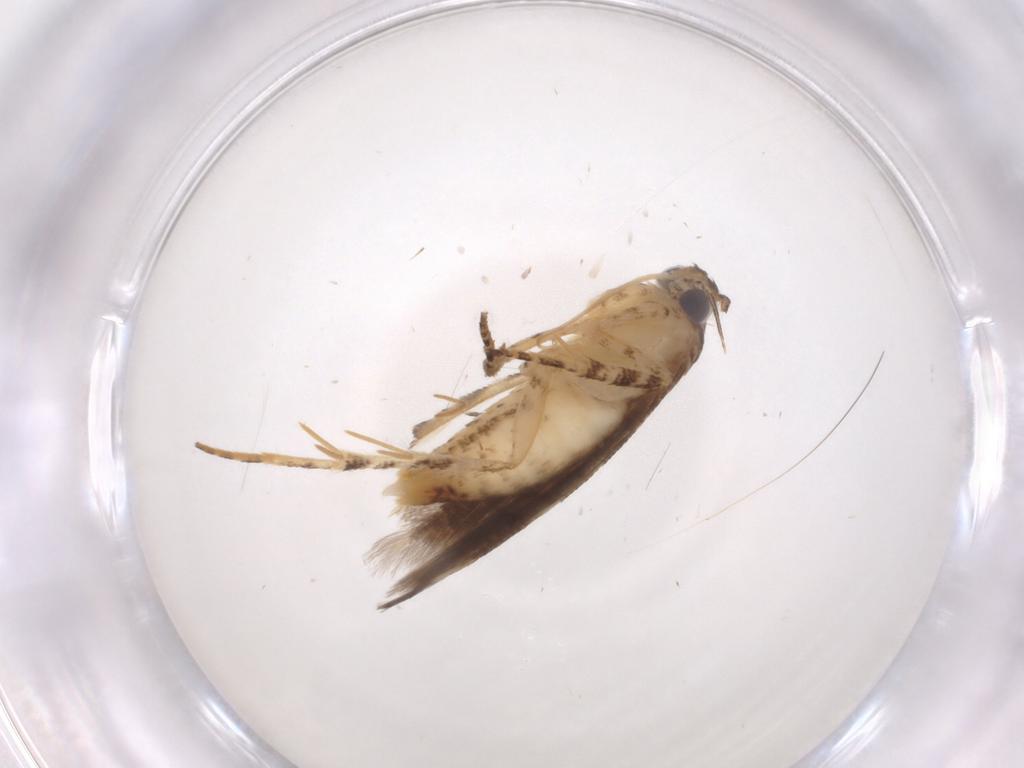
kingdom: Animalia
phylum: Arthropoda
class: Insecta
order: Lepidoptera
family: Gelechiidae
